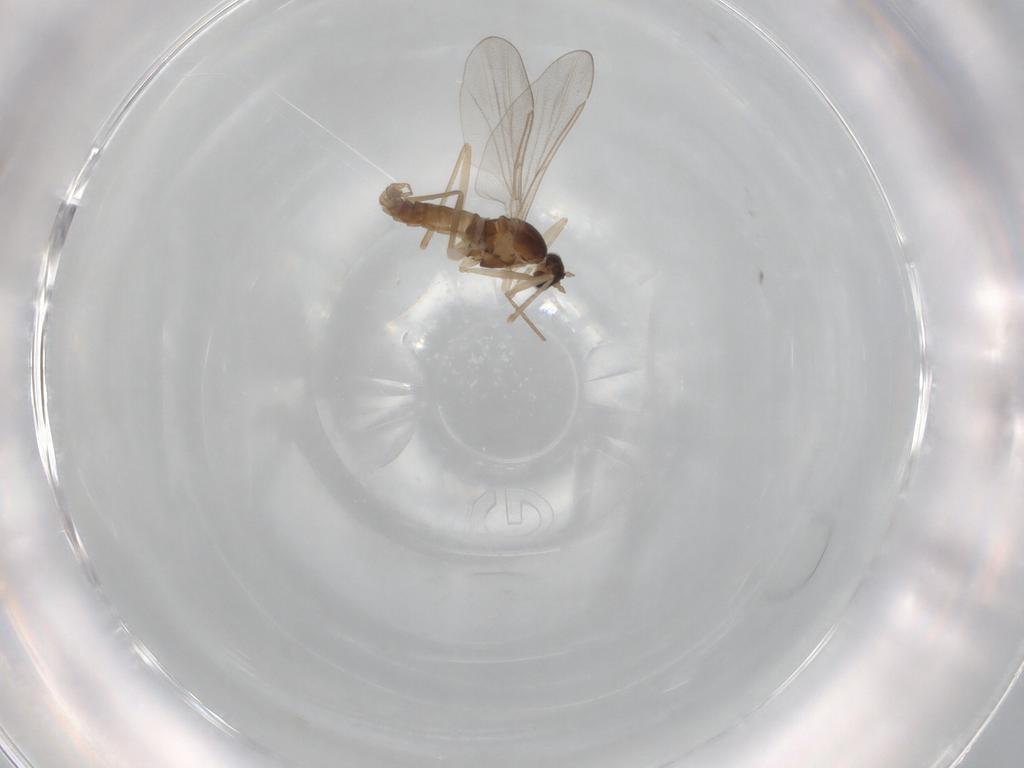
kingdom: Animalia
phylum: Arthropoda
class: Insecta
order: Diptera
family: Cecidomyiidae
